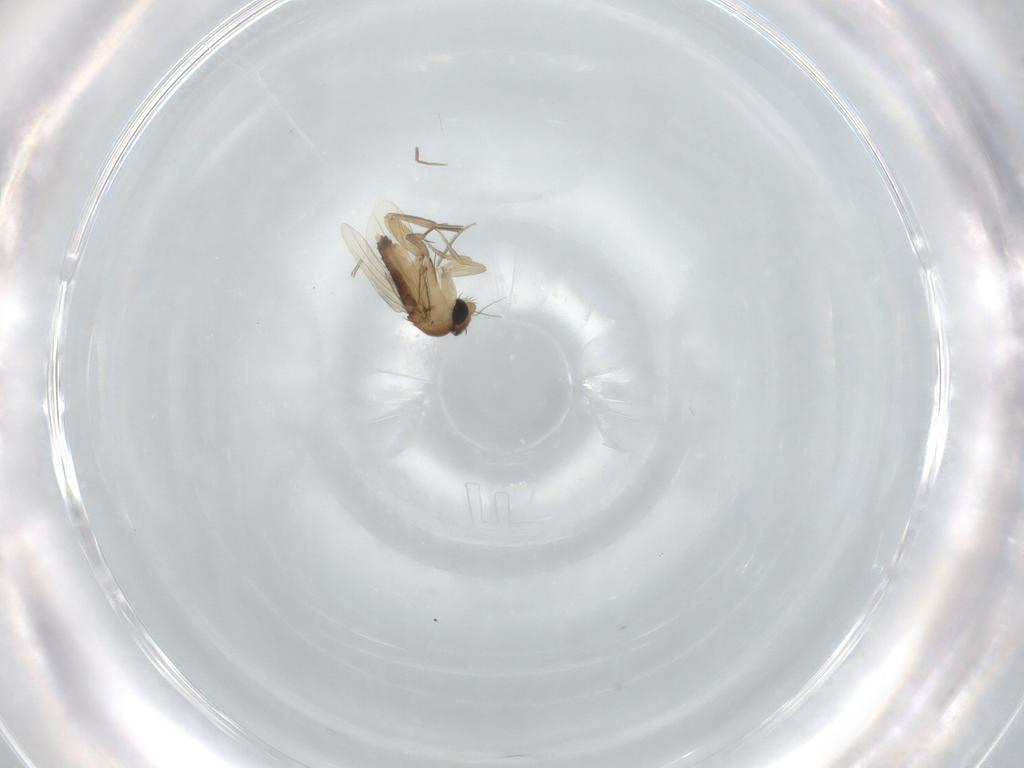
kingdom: Animalia
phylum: Arthropoda
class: Insecta
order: Diptera
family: Phoridae
